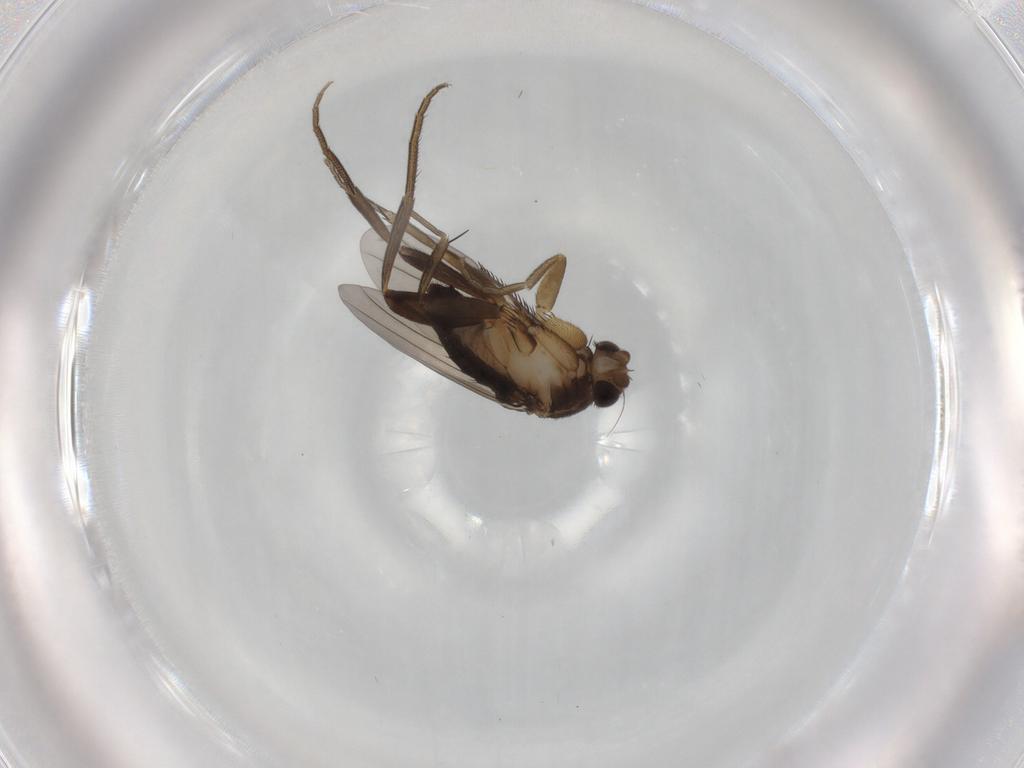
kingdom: Animalia
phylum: Arthropoda
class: Insecta
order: Diptera
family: Phoridae
